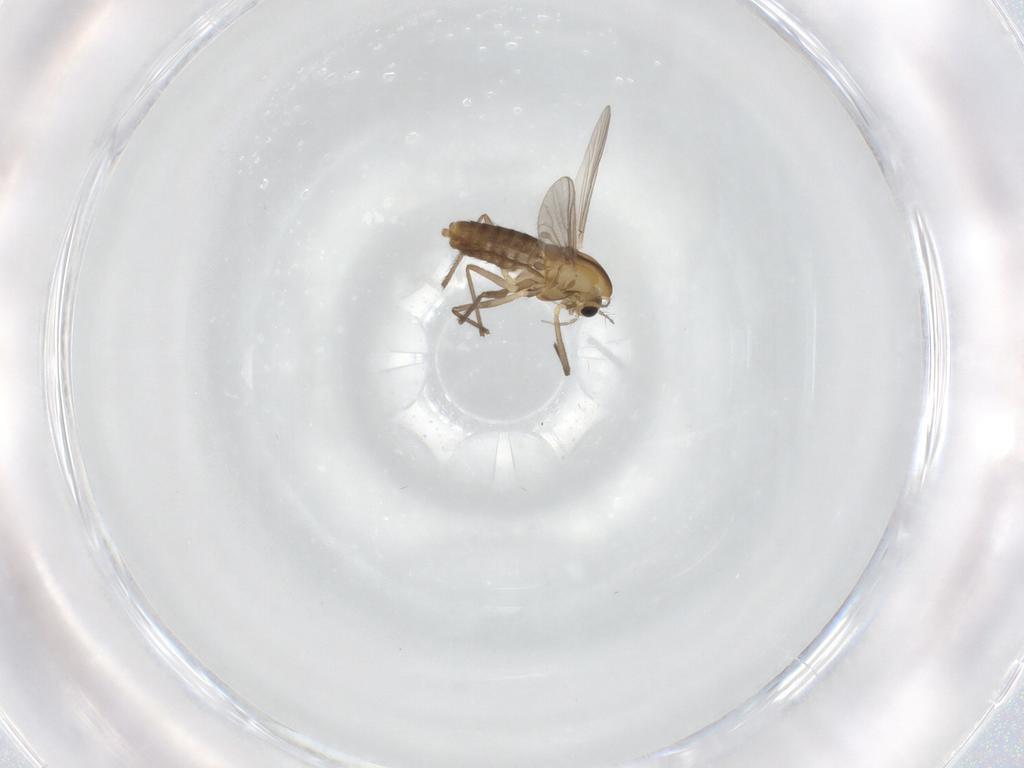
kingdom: Animalia
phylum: Arthropoda
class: Insecta
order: Diptera
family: Chironomidae
